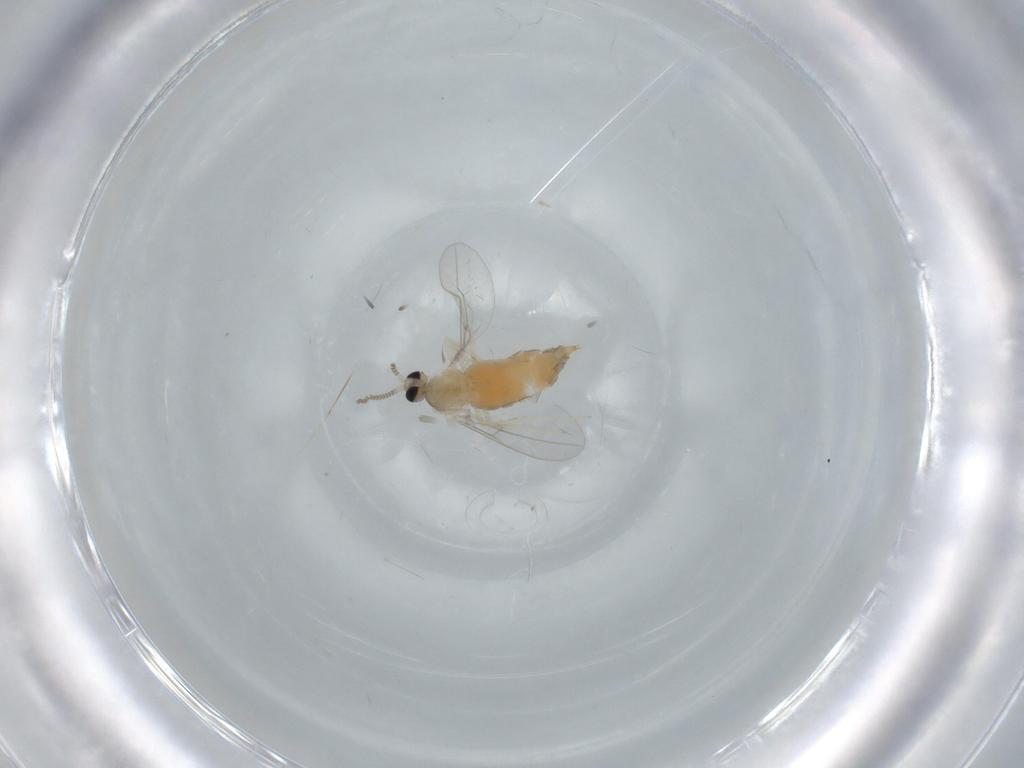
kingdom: Animalia
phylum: Arthropoda
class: Insecta
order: Diptera
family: Cecidomyiidae
